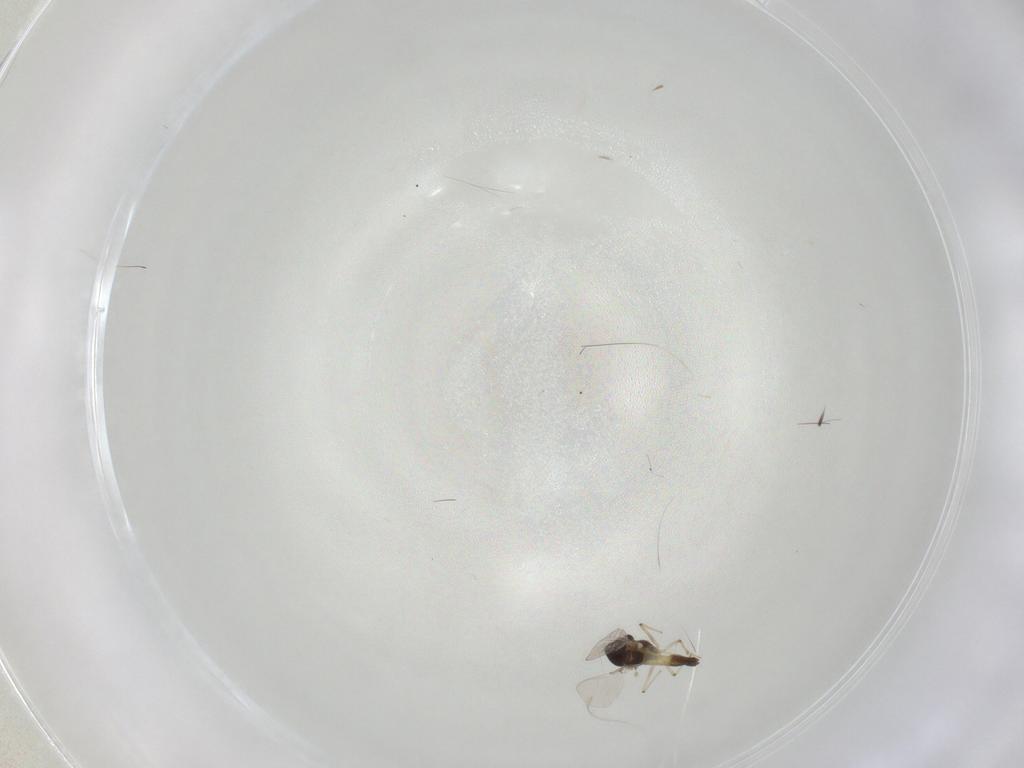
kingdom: Animalia
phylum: Arthropoda
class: Insecta
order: Diptera
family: Chironomidae
